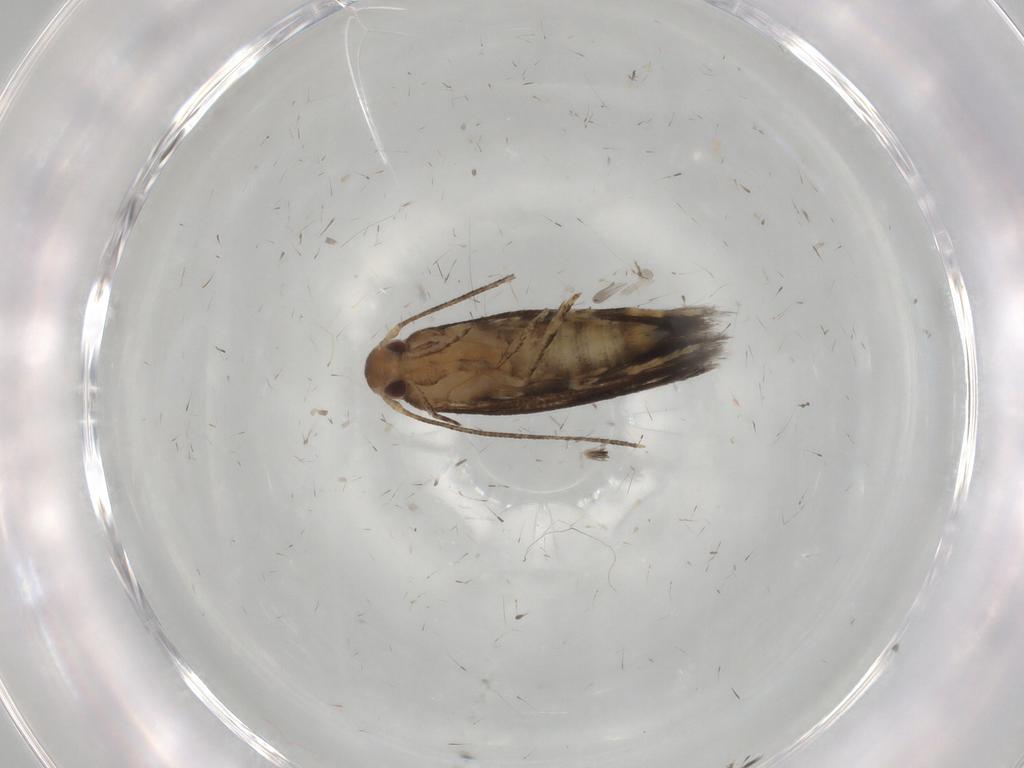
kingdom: Animalia
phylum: Arthropoda
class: Insecta
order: Lepidoptera
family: Momphidae
